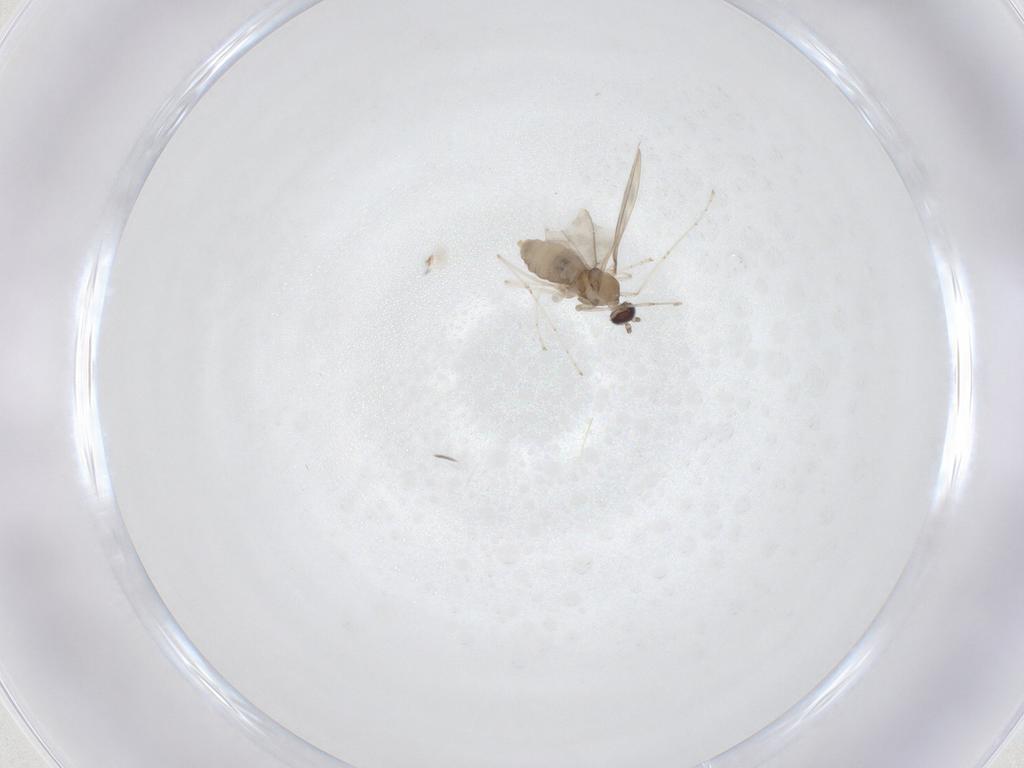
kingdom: Animalia
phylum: Arthropoda
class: Insecta
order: Diptera
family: Cecidomyiidae
